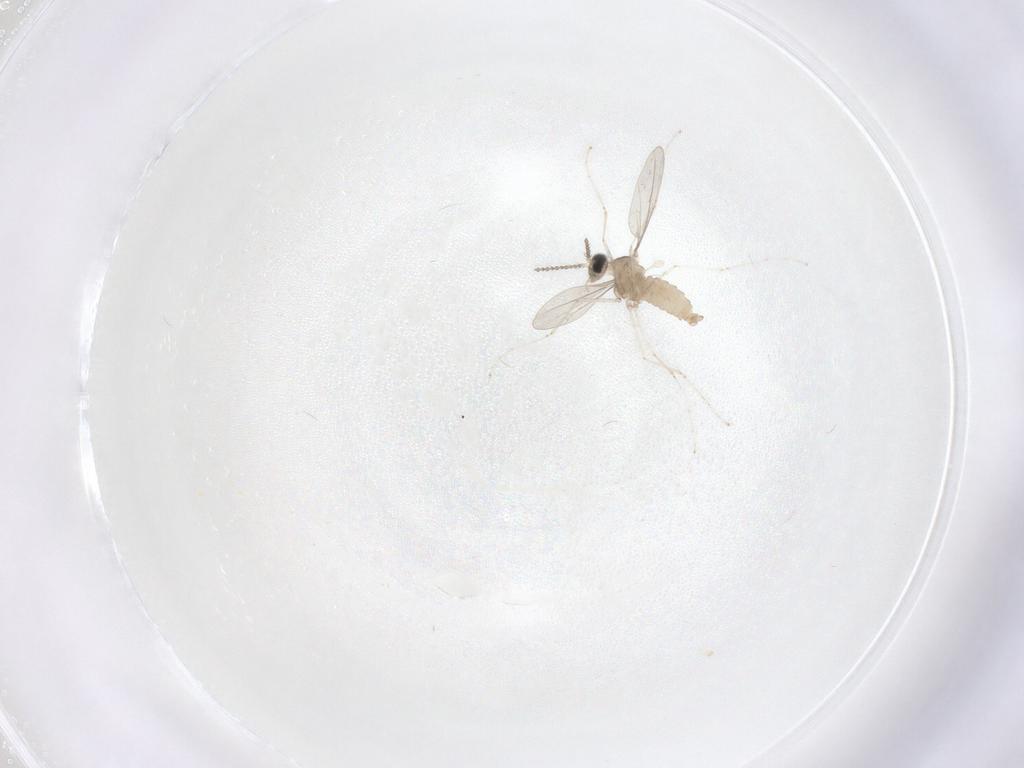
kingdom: Animalia
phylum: Arthropoda
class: Insecta
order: Diptera
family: Cecidomyiidae
